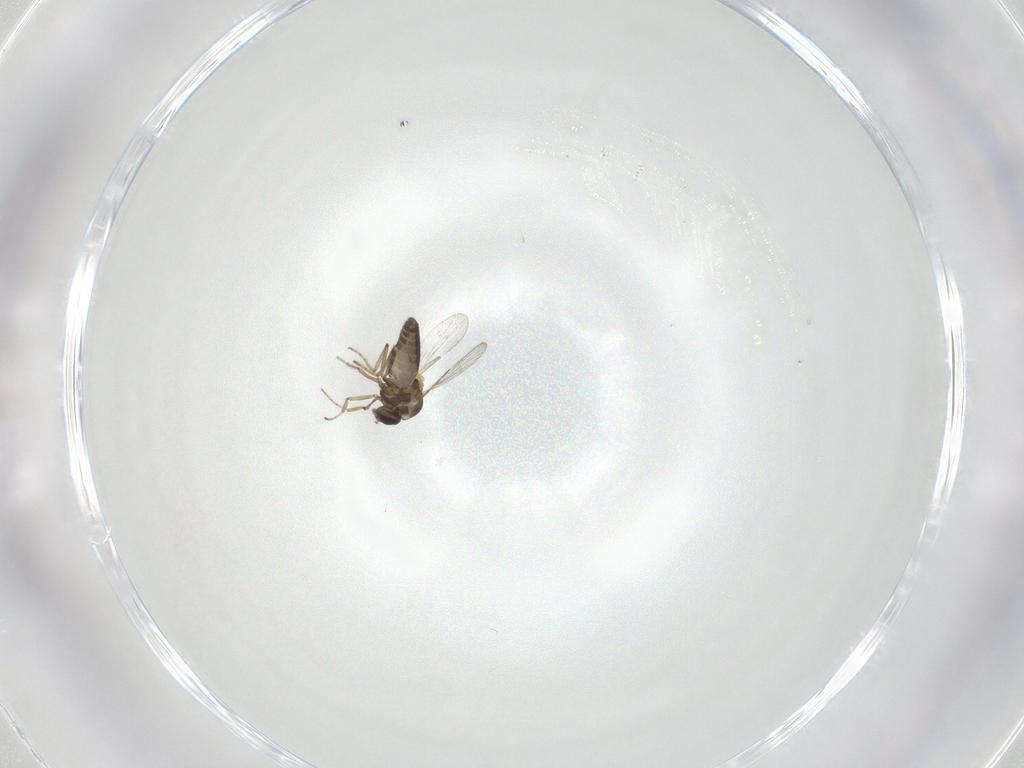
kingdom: Animalia
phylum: Arthropoda
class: Insecta
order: Diptera
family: Ceratopogonidae
